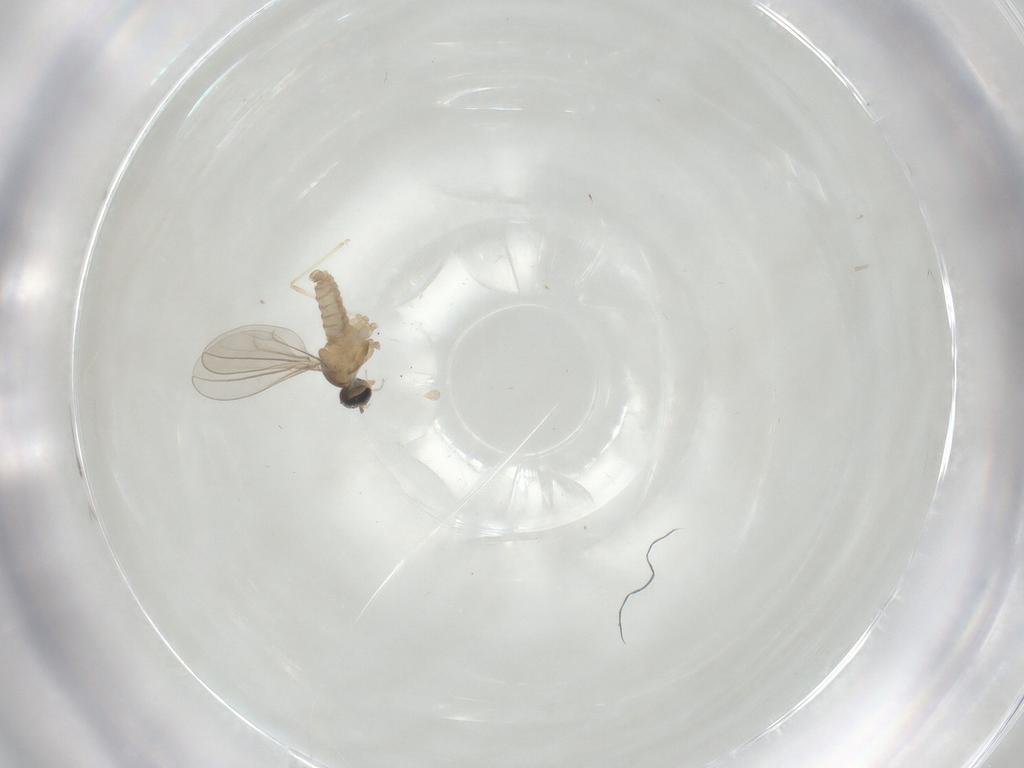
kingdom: Animalia
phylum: Arthropoda
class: Insecta
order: Diptera
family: Cecidomyiidae
